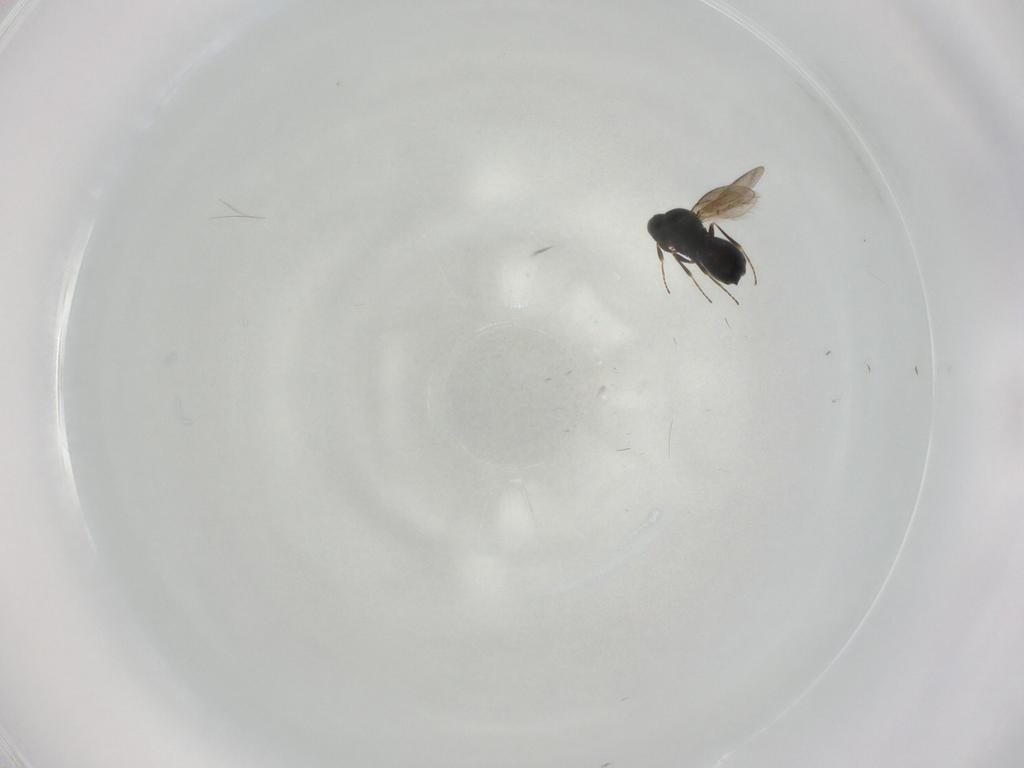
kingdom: Animalia
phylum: Arthropoda
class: Insecta
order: Hymenoptera
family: Scelionidae
